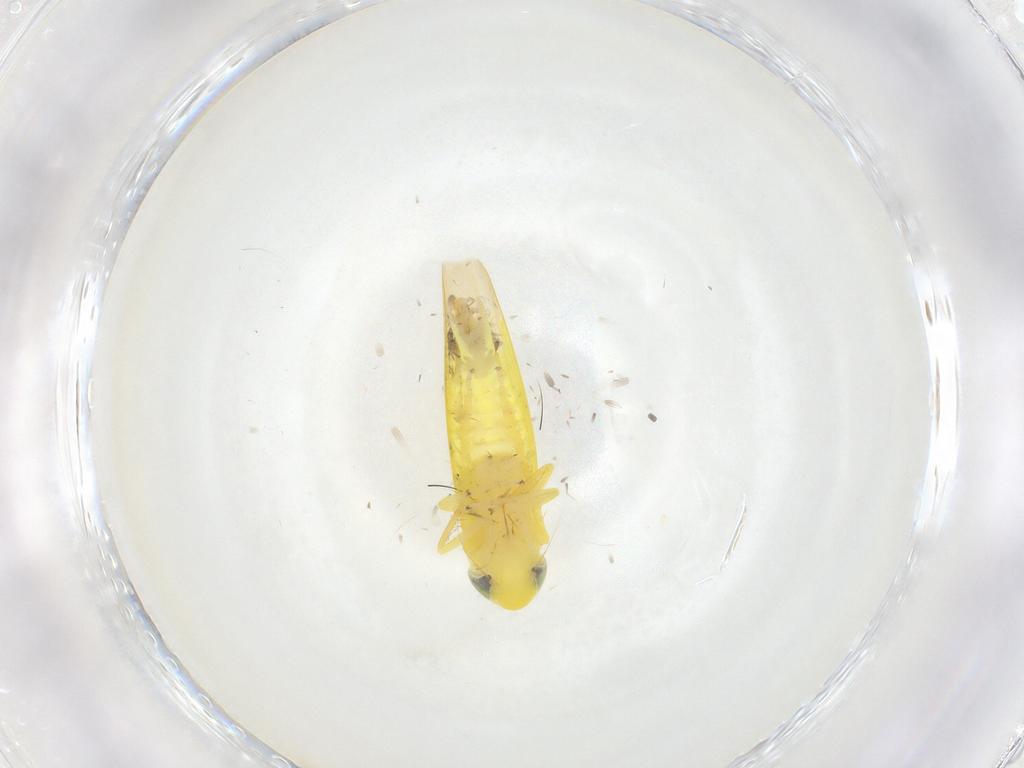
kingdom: Animalia
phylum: Arthropoda
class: Insecta
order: Hemiptera
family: Cicadellidae
